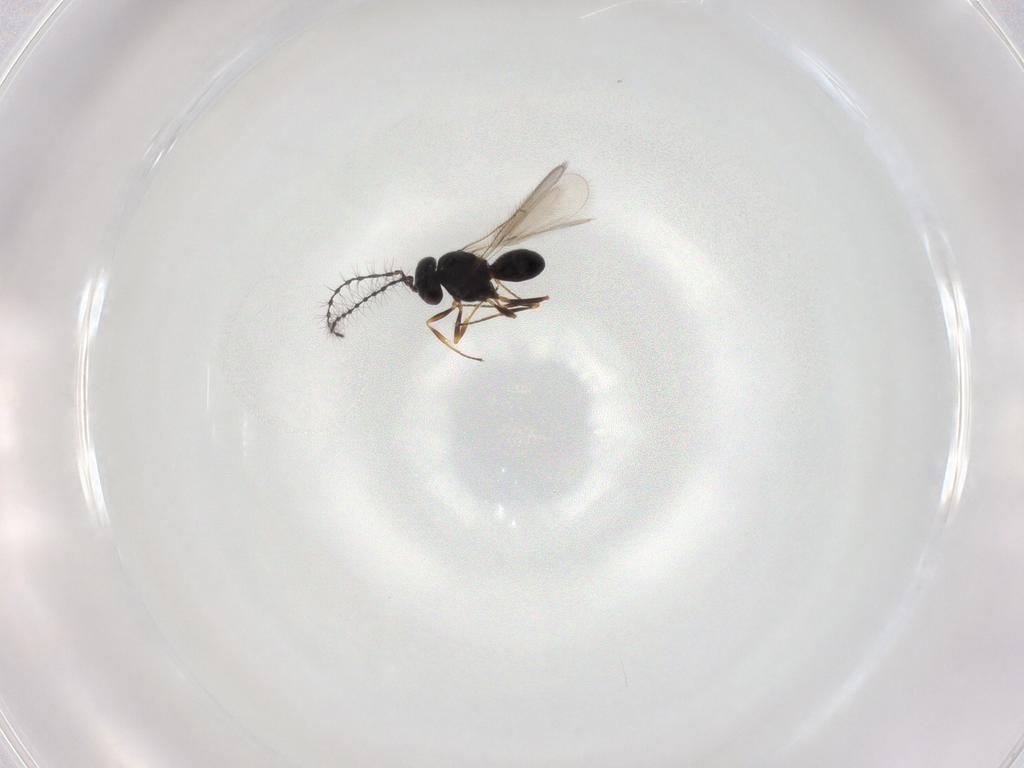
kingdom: Animalia
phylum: Arthropoda
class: Insecta
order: Hymenoptera
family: Scelionidae
